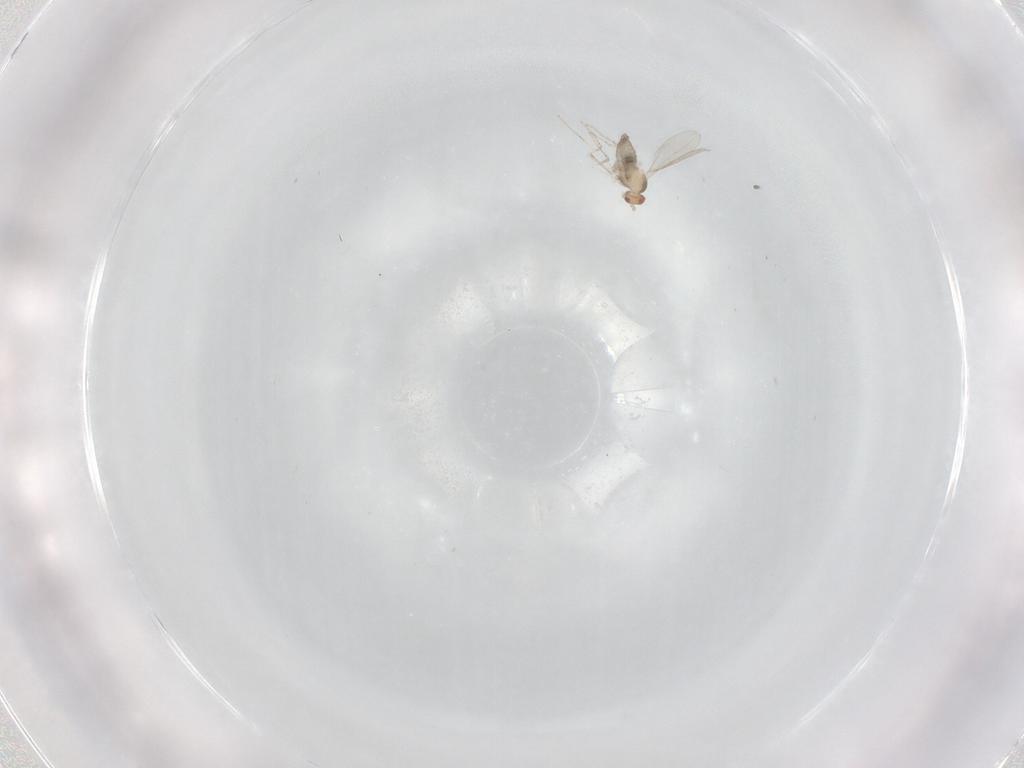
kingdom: Animalia
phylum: Arthropoda
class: Insecta
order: Diptera
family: Cecidomyiidae
